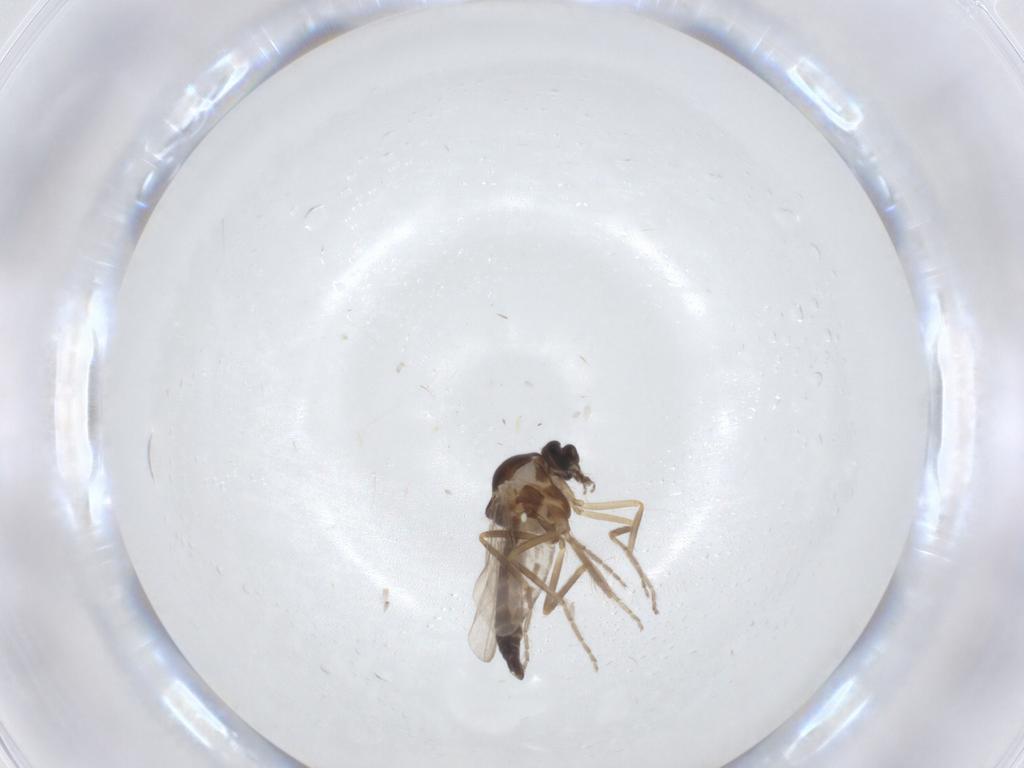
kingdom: Animalia
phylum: Arthropoda
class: Insecta
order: Diptera
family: Ceratopogonidae
